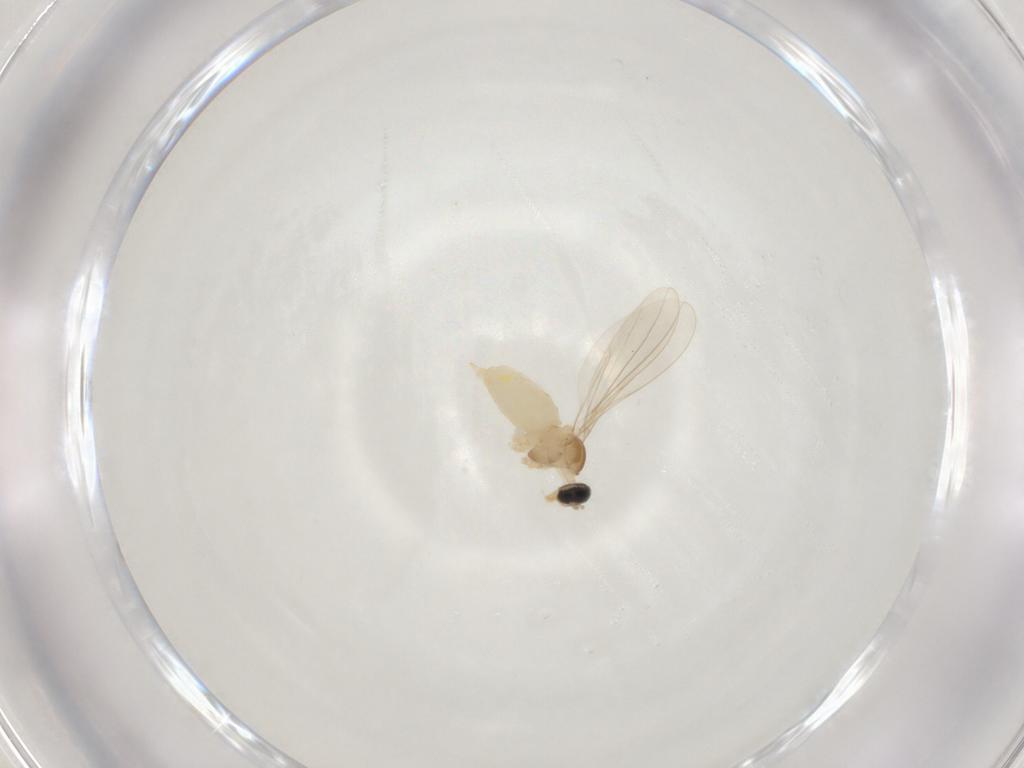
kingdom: Animalia
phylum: Arthropoda
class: Insecta
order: Diptera
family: Cecidomyiidae
